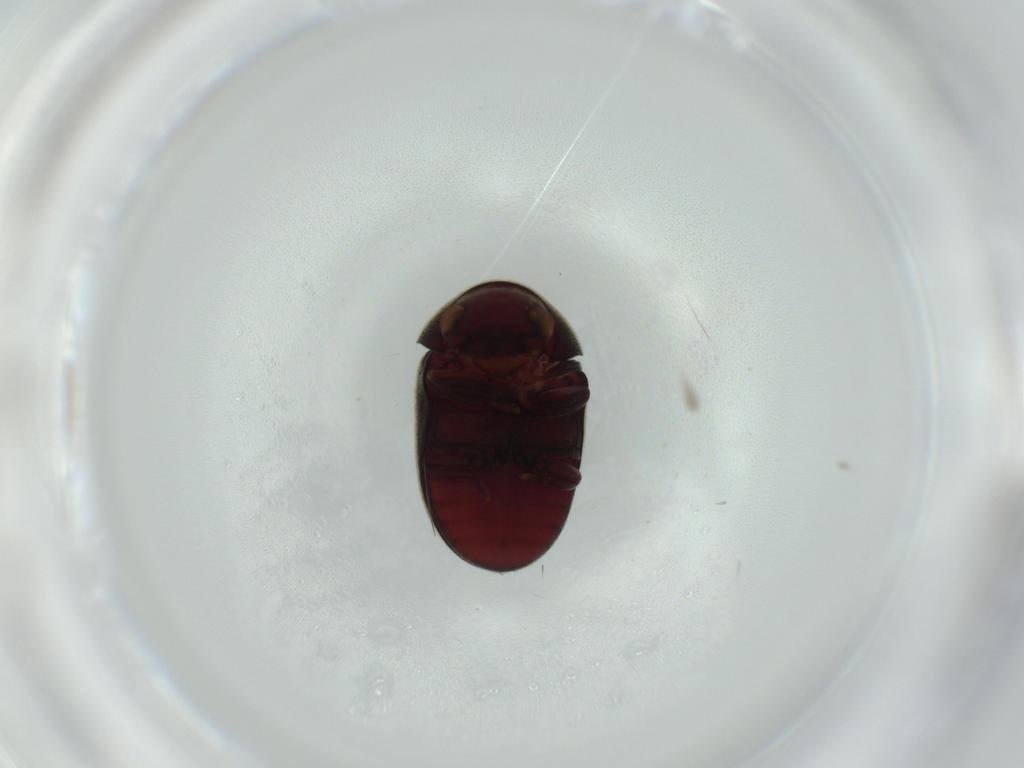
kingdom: Animalia
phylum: Arthropoda
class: Insecta
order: Coleoptera
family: Ptinidae
